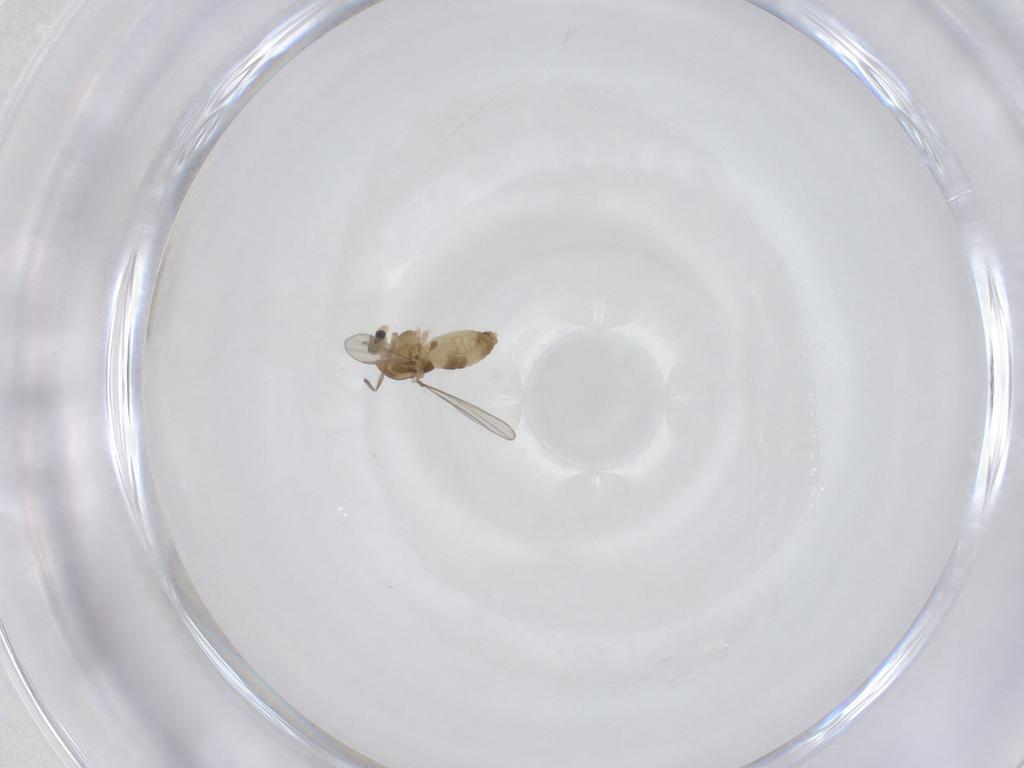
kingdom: Animalia
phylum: Arthropoda
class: Insecta
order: Diptera
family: Chironomidae
